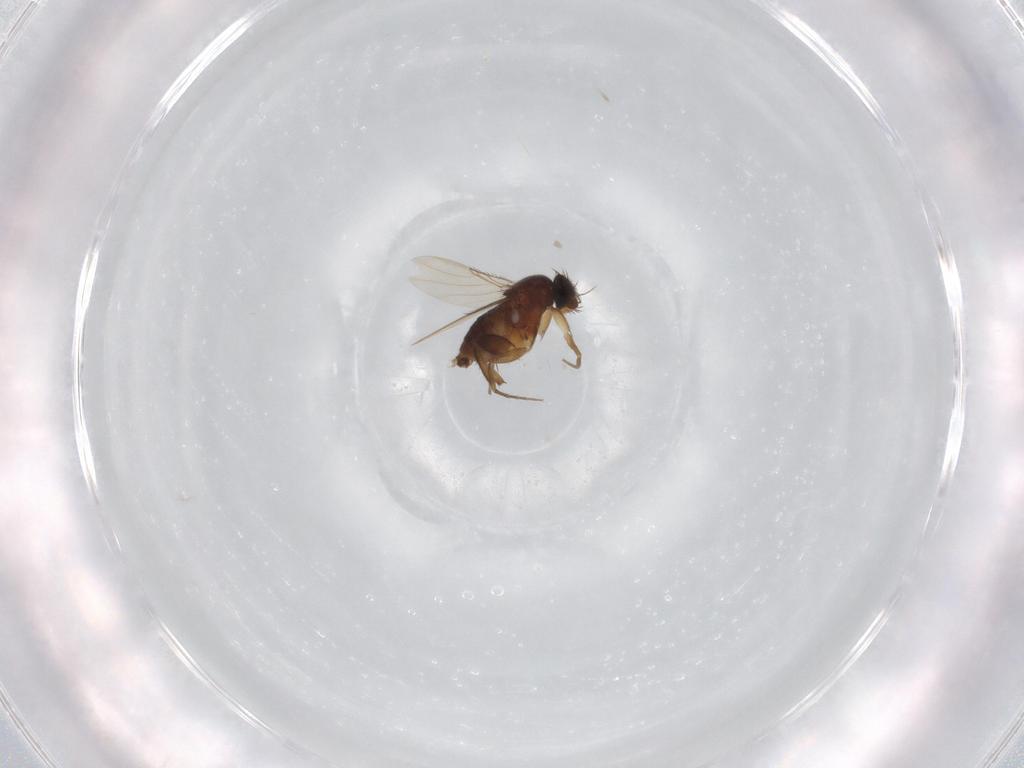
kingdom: Animalia
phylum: Arthropoda
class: Insecta
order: Diptera
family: Phoridae
